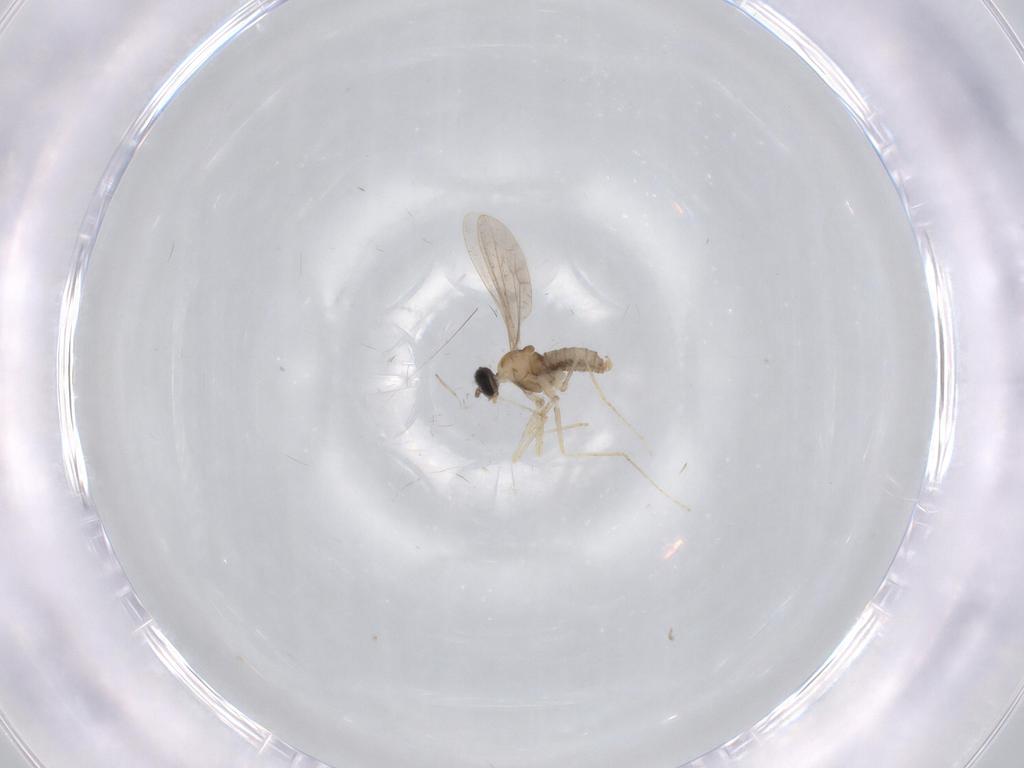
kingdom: Animalia
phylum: Arthropoda
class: Insecta
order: Diptera
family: Cecidomyiidae
